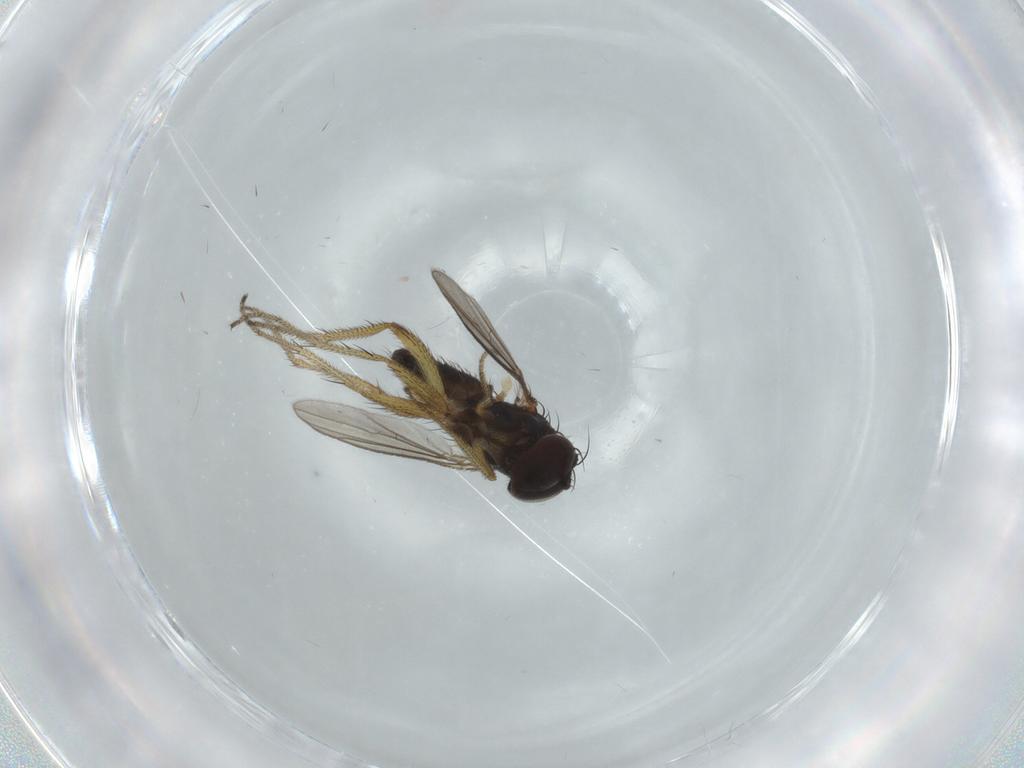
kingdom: Animalia
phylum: Arthropoda
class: Insecta
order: Diptera
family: Dolichopodidae
